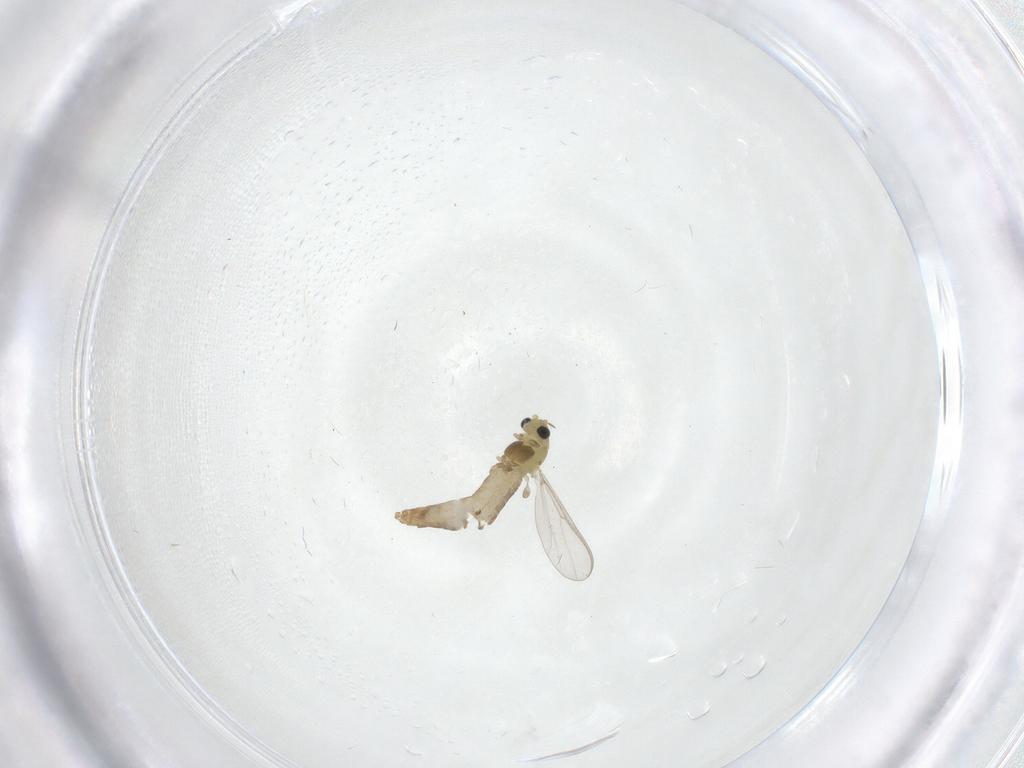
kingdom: Animalia
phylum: Arthropoda
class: Insecta
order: Diptera
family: Chironomidae
